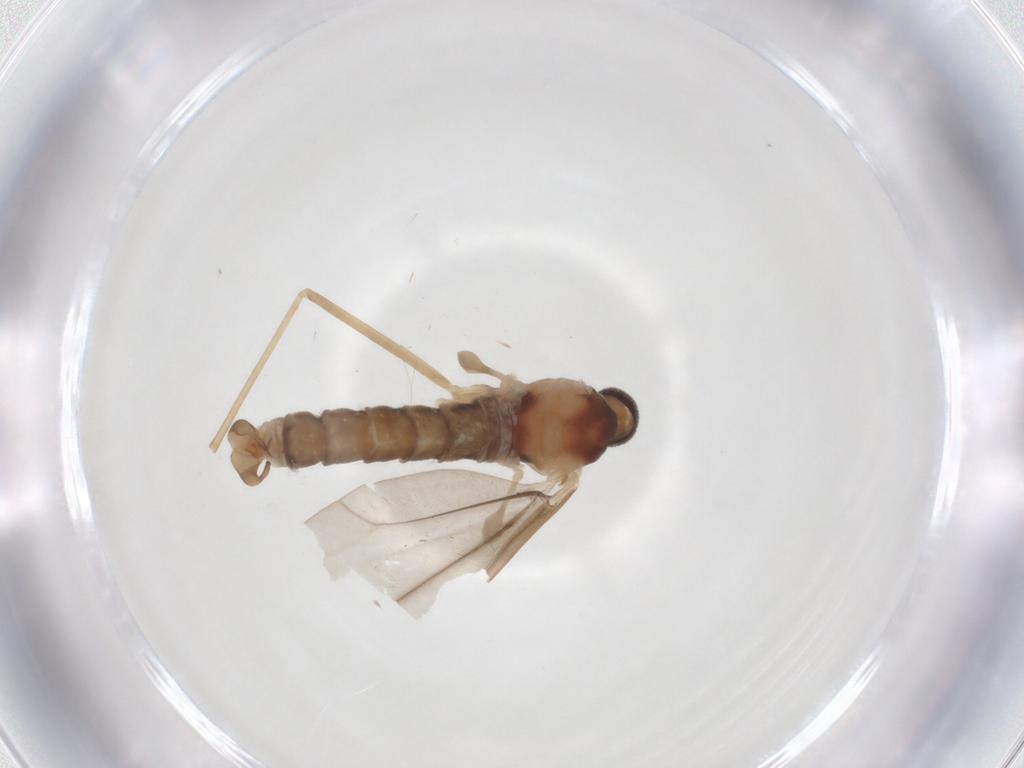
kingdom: Animalia
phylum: Arthropoda
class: Insecta
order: Diptera
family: Cecidomyiidae
